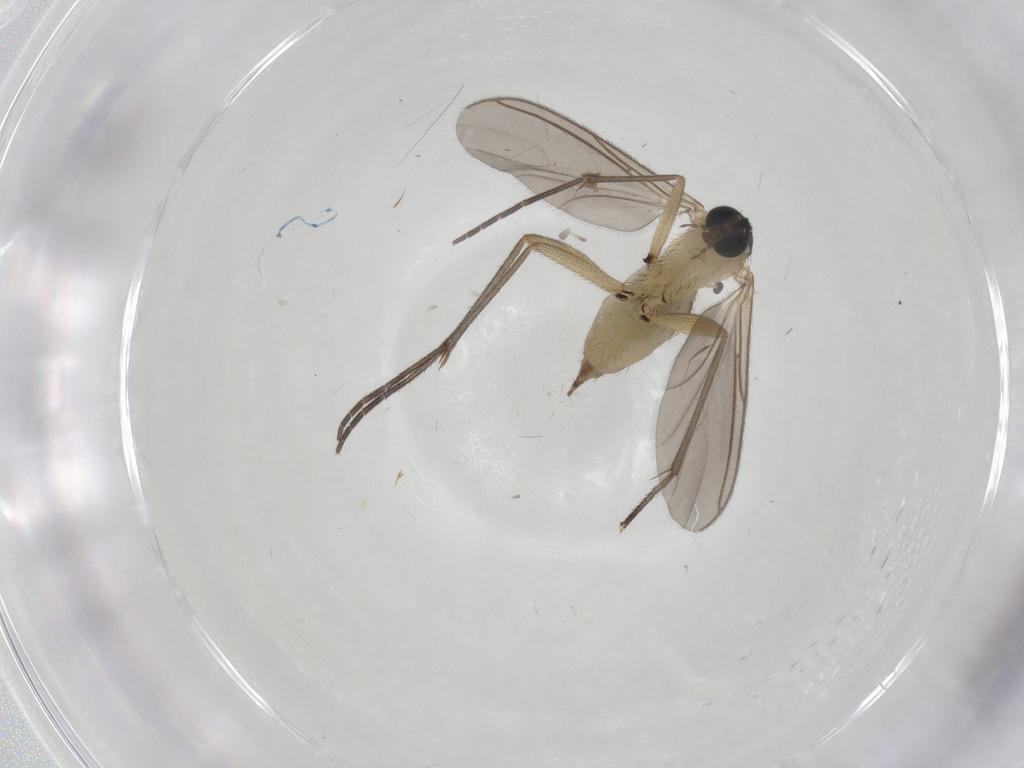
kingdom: Animalia
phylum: Arthropoda
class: Insecta
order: Diptera
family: Sciaridae
